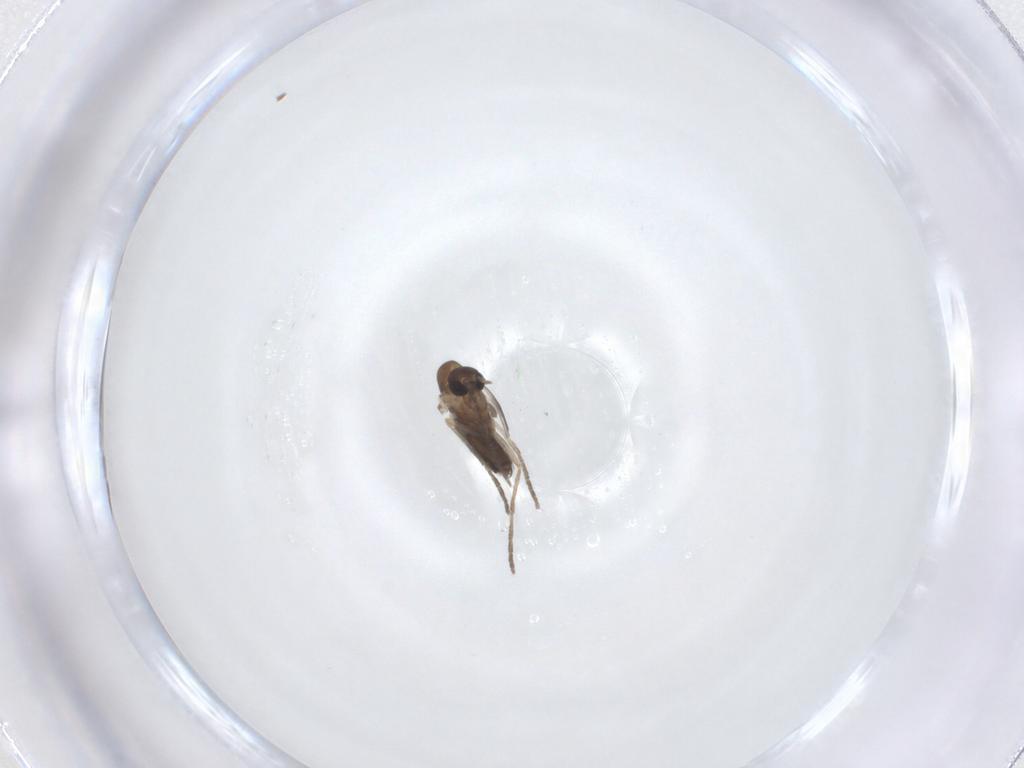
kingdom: Animalia
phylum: Arthropoda
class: Insecta
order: Diptera
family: Psychodidae
